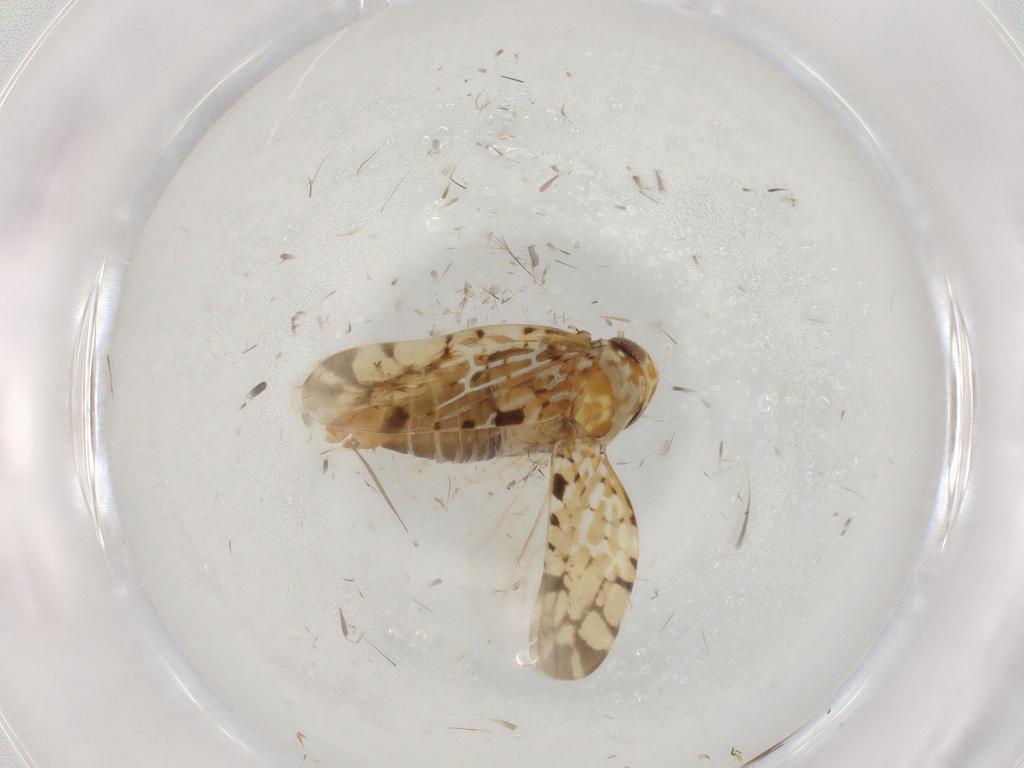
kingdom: Animalia
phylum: Arthropoda
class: Insecta
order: Hemiptera
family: Cicadellidae
